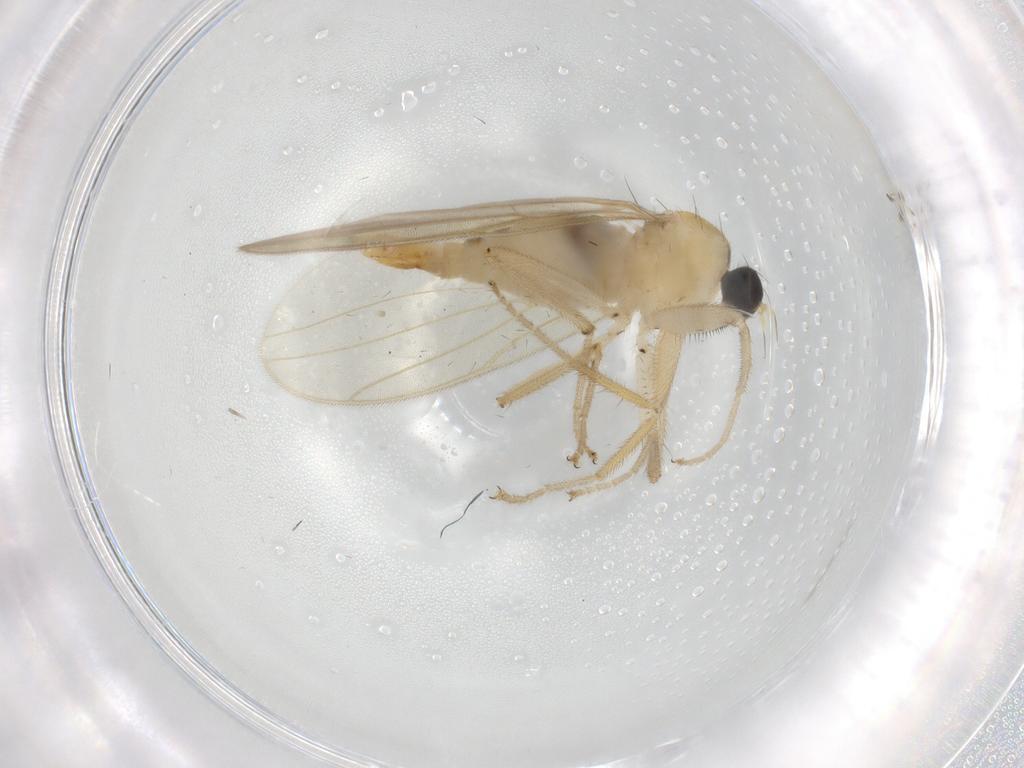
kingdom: Animalia
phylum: Arthropoda
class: Insecta
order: Diptera
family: Hybotidae
